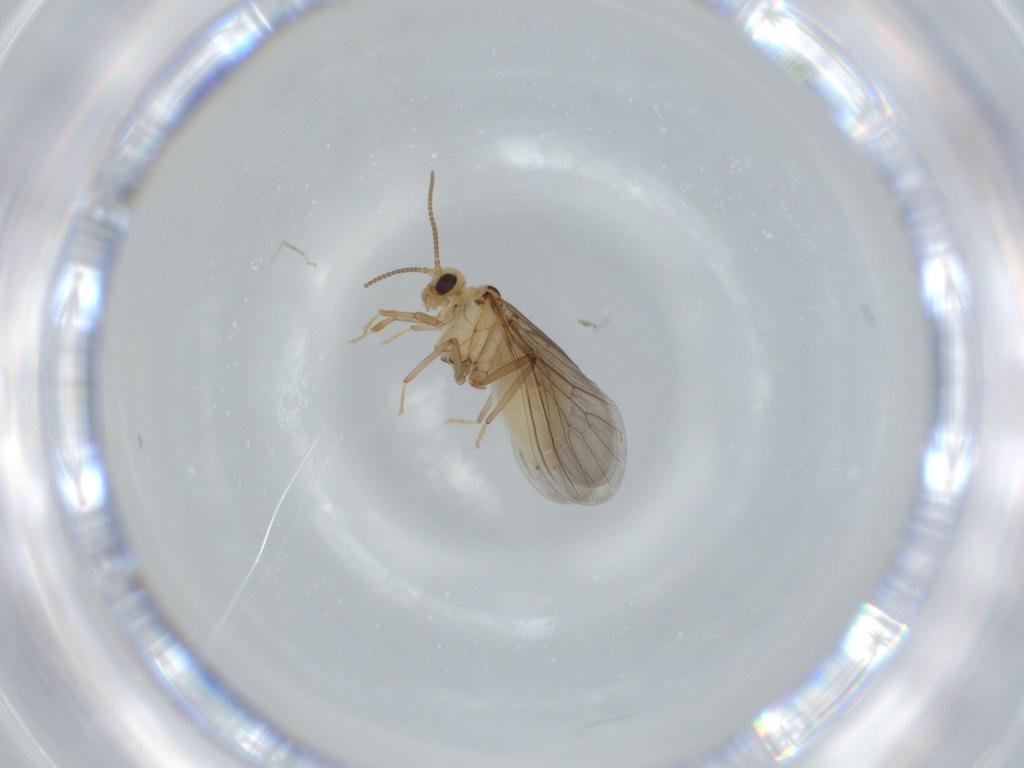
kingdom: Animalia
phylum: Arthropoda
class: Insecta
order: Neuroptera
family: Coniopterygidae
